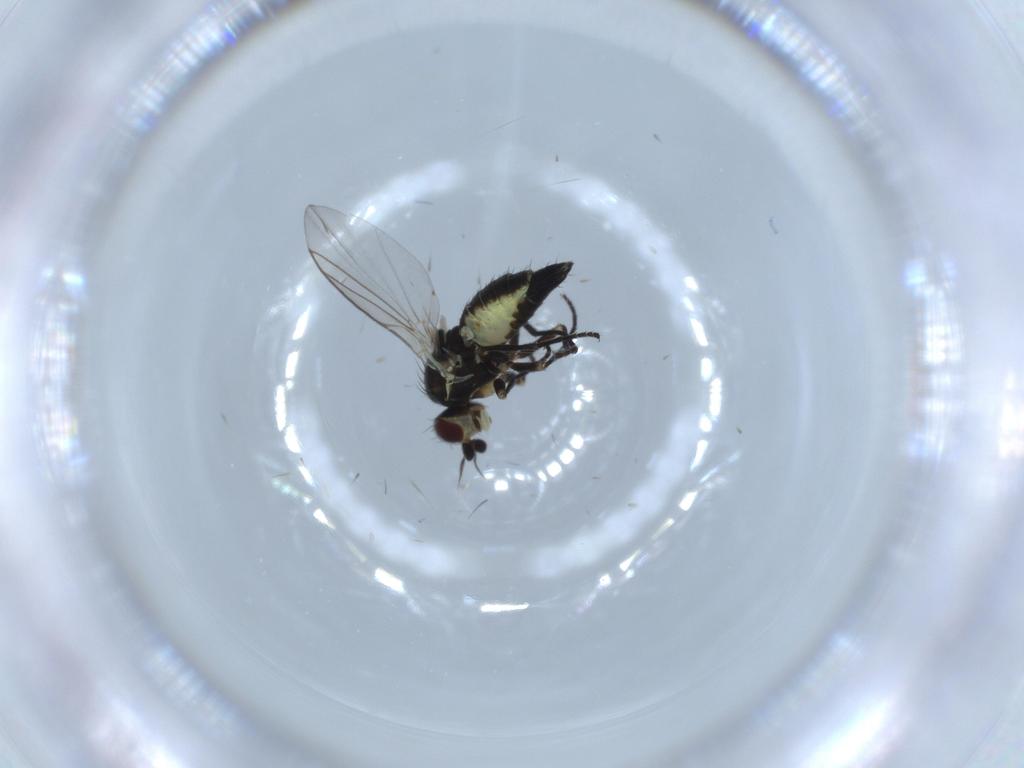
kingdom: Animalia
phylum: Arthropoda
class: Insecta
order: Diptera
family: Agromyzidae
